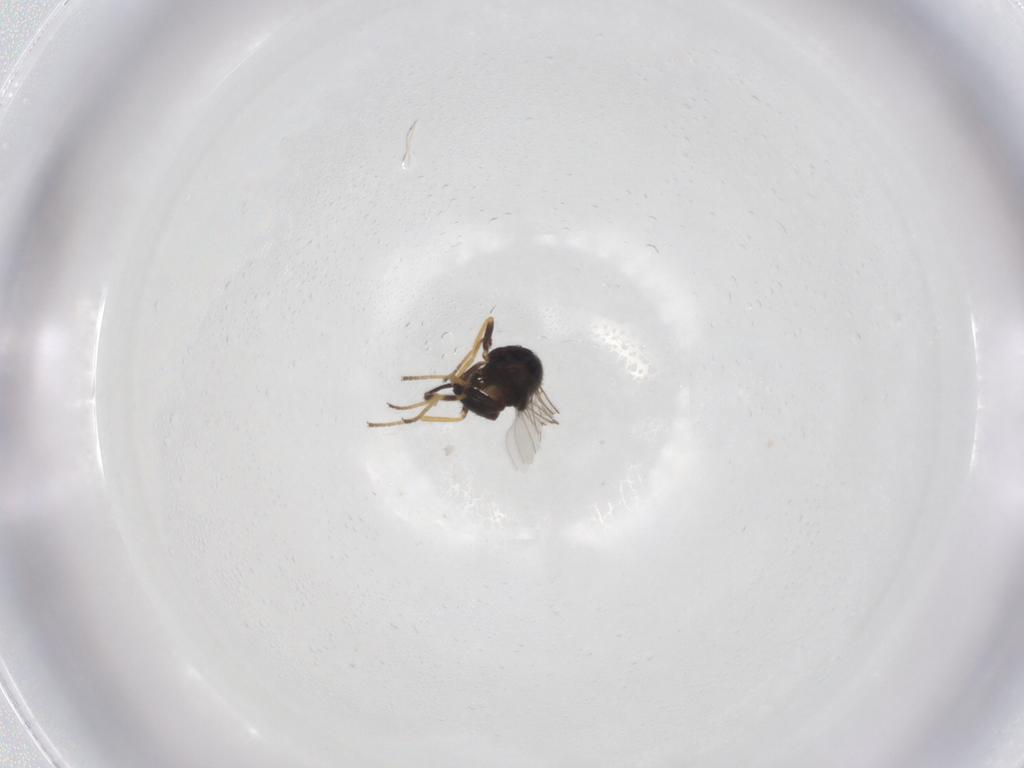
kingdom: Animalia
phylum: Arthropoda
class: Insecta
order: Diptera
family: Chloropidae
